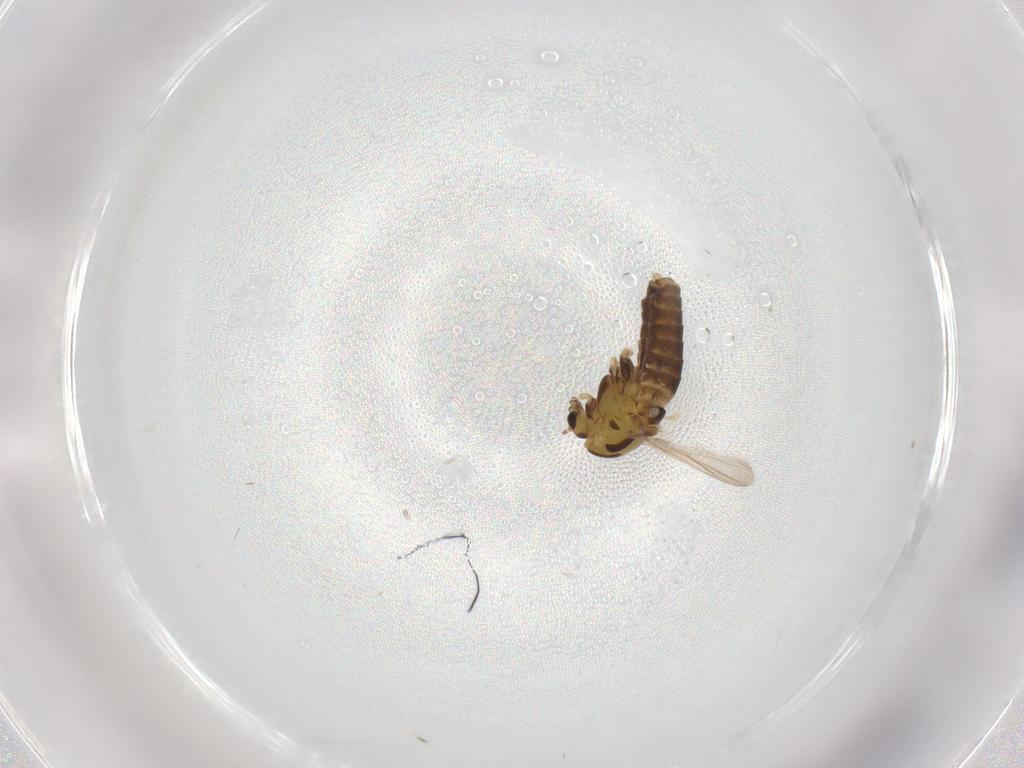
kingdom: Animalia
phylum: Arthropoda
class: Insecta
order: Diptera
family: Chironomidae
